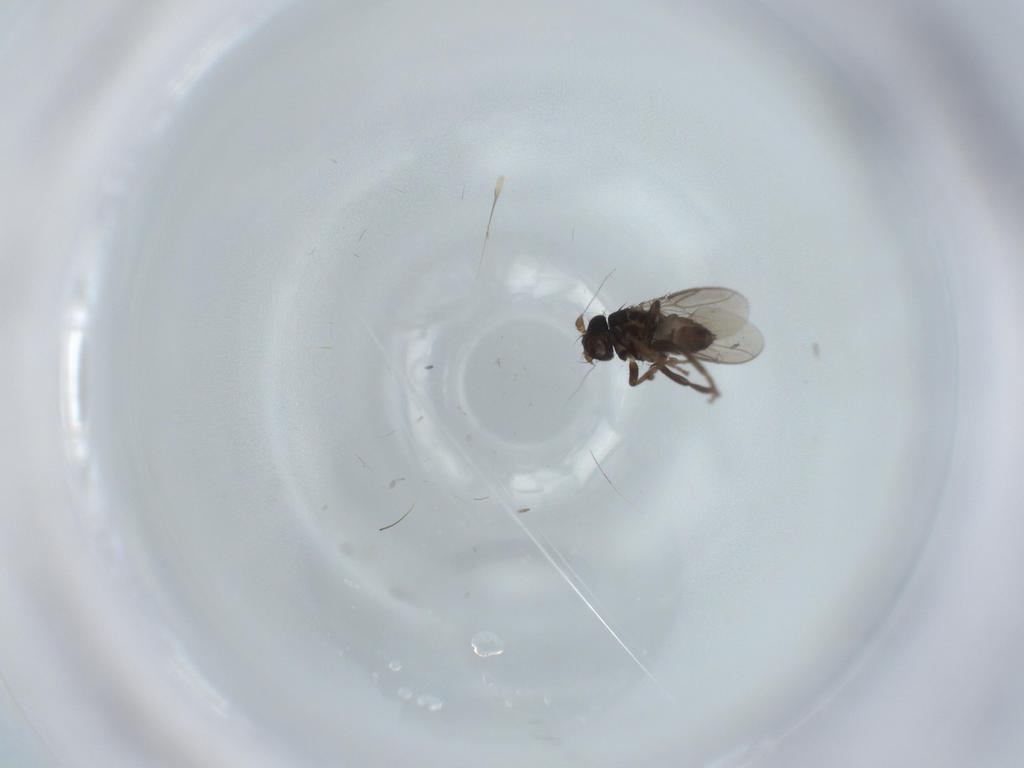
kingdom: Animalia
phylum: Arthropoda
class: Insecta
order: Diptera
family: Sphaeroceridae
